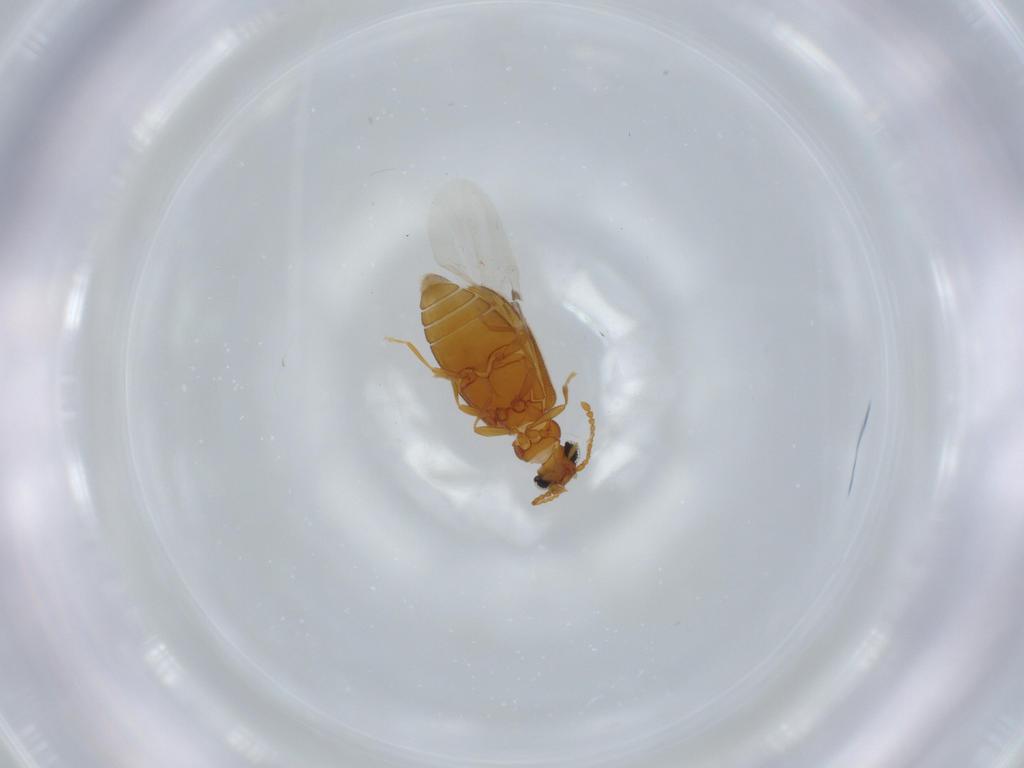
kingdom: Animalia
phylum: Arthropoda
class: Insecta
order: Coleoptera
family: Aderidae
